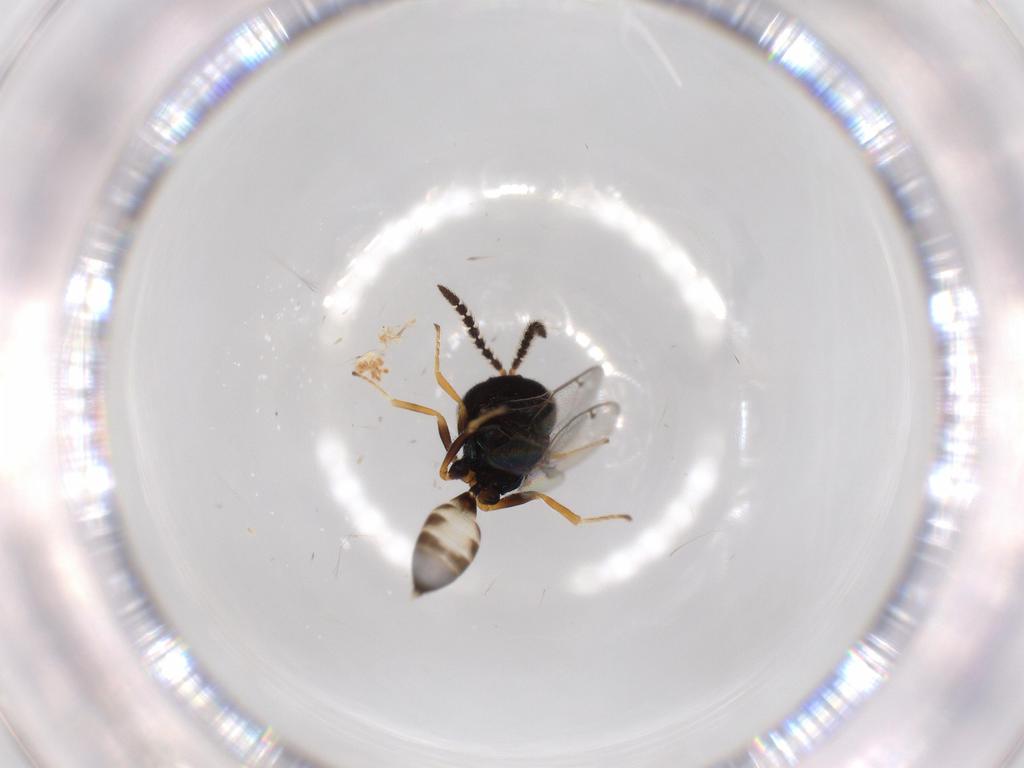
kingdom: Animalia
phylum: Arthropoda
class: Insecta
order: Hymenoptera
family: Pteromalidae
